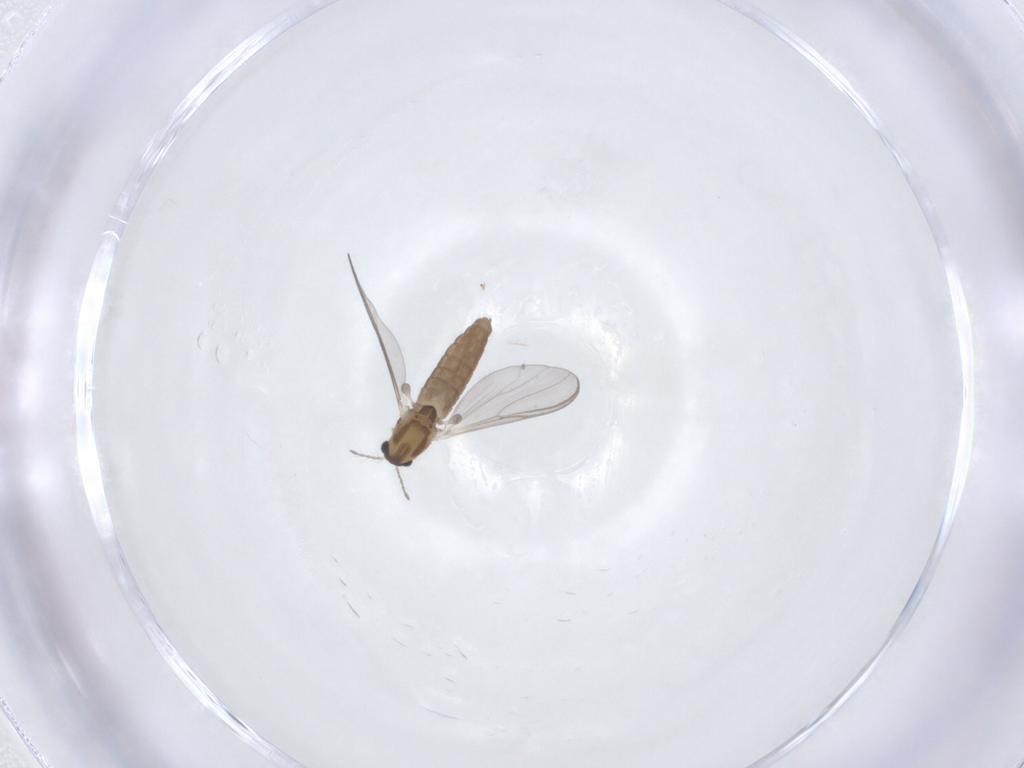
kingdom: Animalia
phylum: Arthropoda
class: Insecta
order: Diptera
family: Chironomidae
